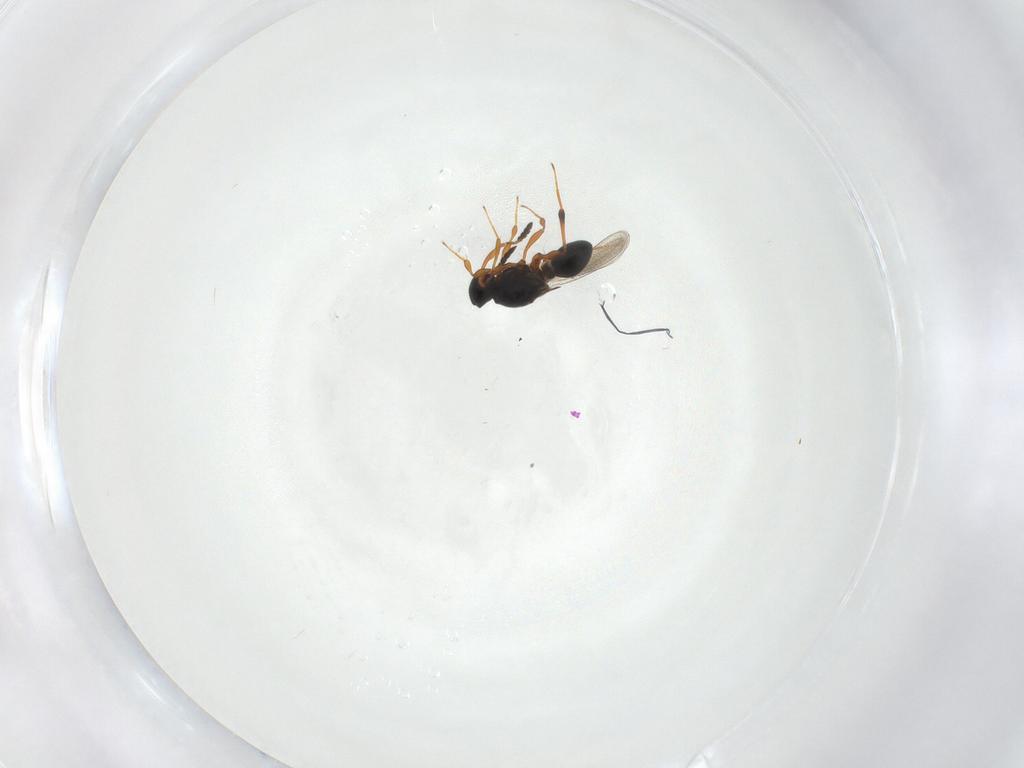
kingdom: Animalia
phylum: Arthropoda
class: Insecta
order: Hymenoptera
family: Platygastridae
